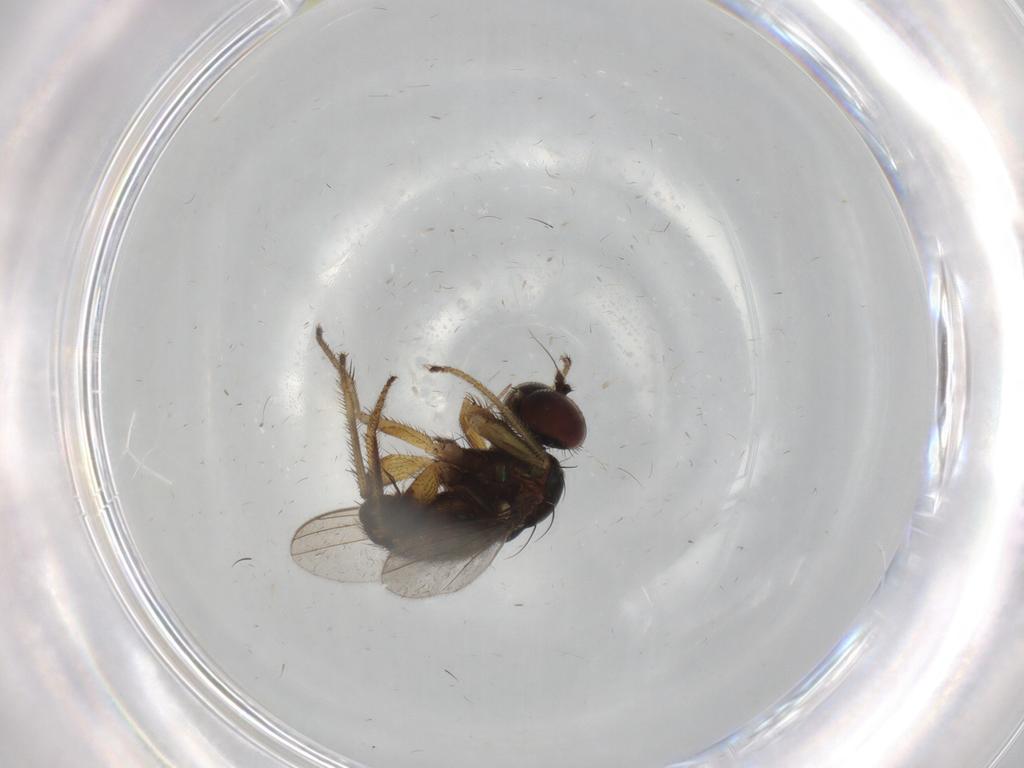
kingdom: Animalia
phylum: Arthropoda
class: Insecta
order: Diptera
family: Dolichopodidae
